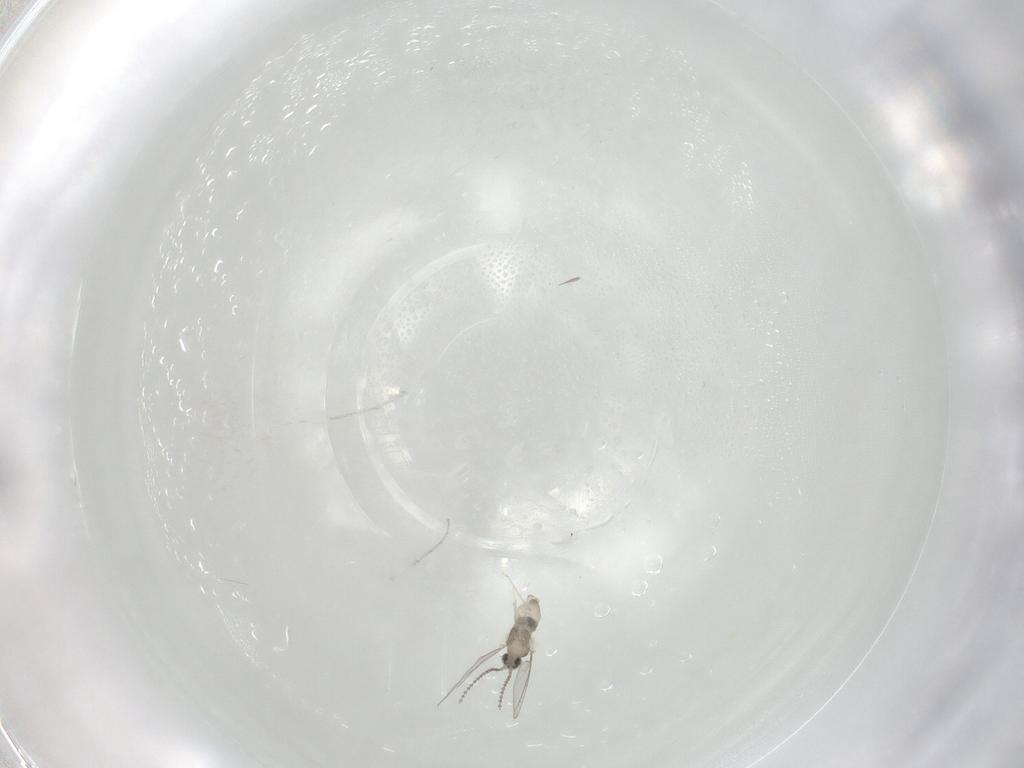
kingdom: Animalia
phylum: Arthropoda
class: Insecta
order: Diptera
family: Cecidomyiidae
